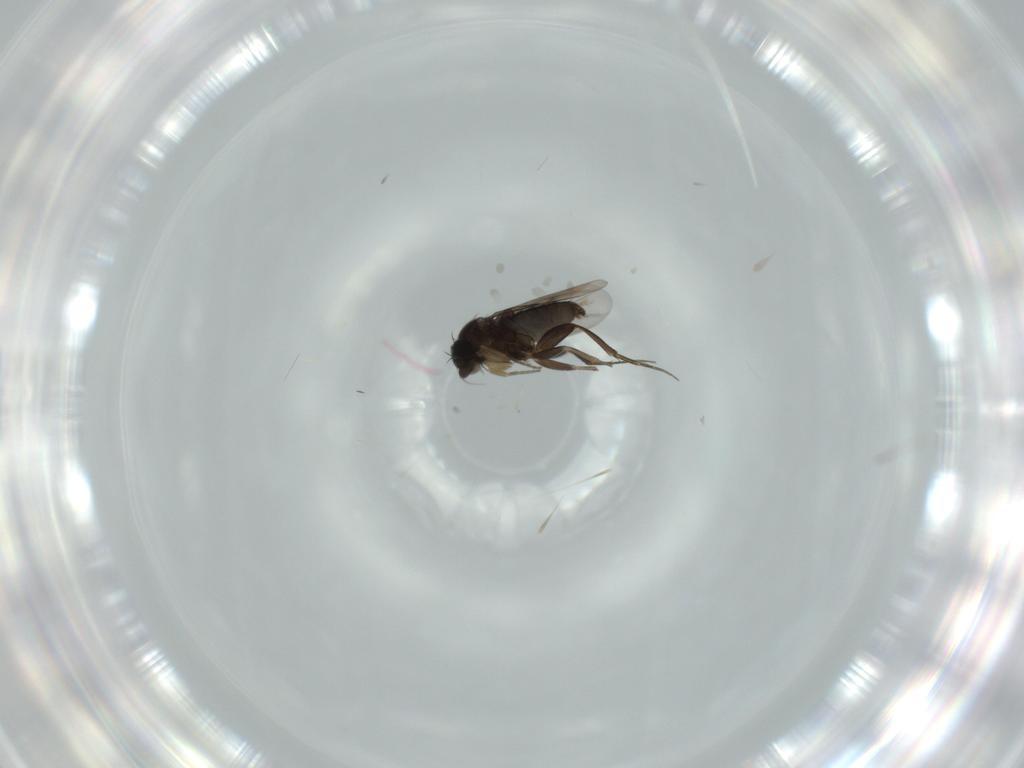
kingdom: Animalia
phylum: Arthropoda
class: Insecta
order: Diptera
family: Phoridae
